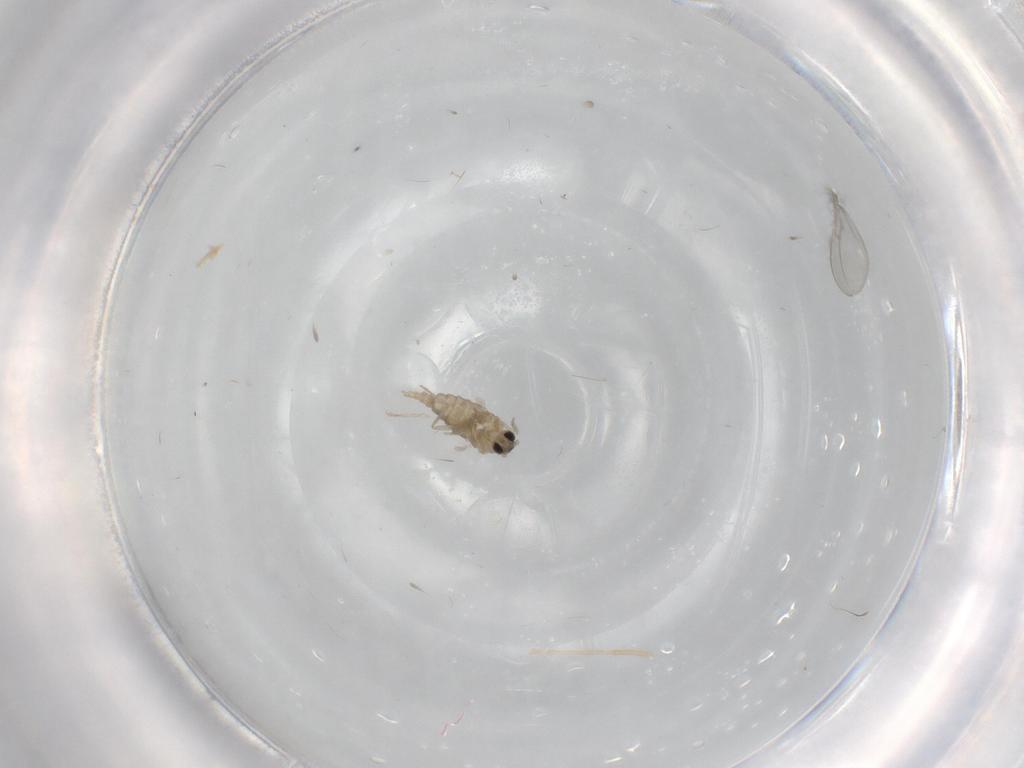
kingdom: Animalia
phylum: Arthropoda
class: Insecta
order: Diptera
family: Cecidomyiidae
